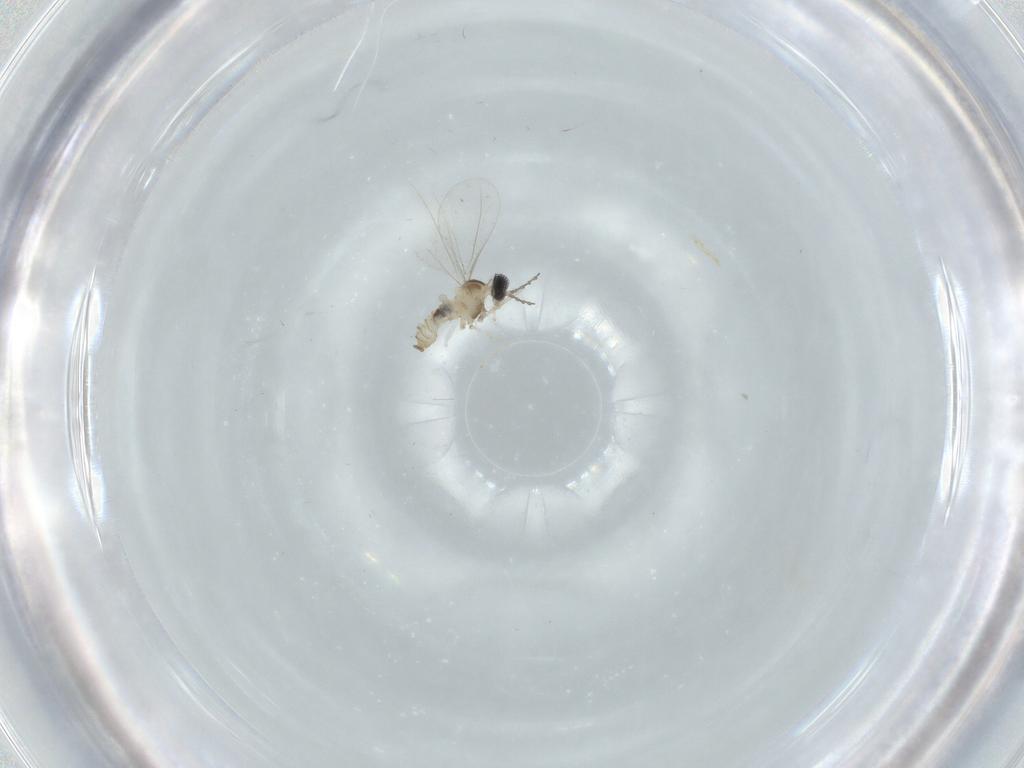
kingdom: Animalia
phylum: Arthropoda
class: Insecta
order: Diptera
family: Cecidomyiidae
